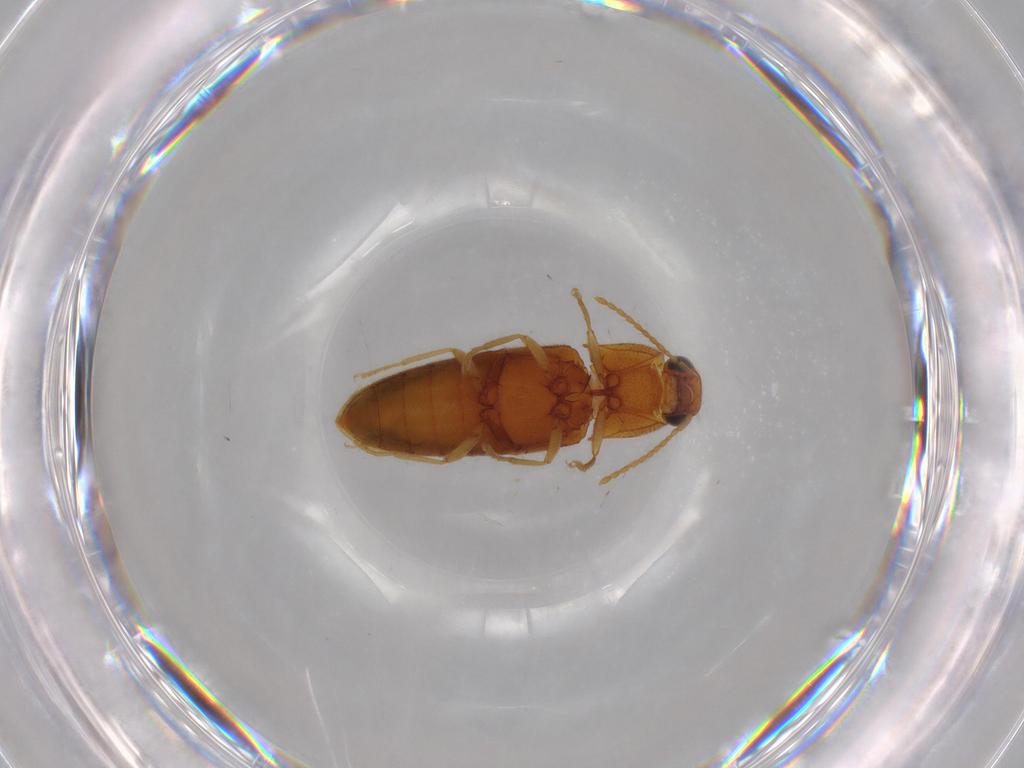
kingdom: Animalia
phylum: Arthropoda
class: Insecta
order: Coleoptera
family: Elateridae
